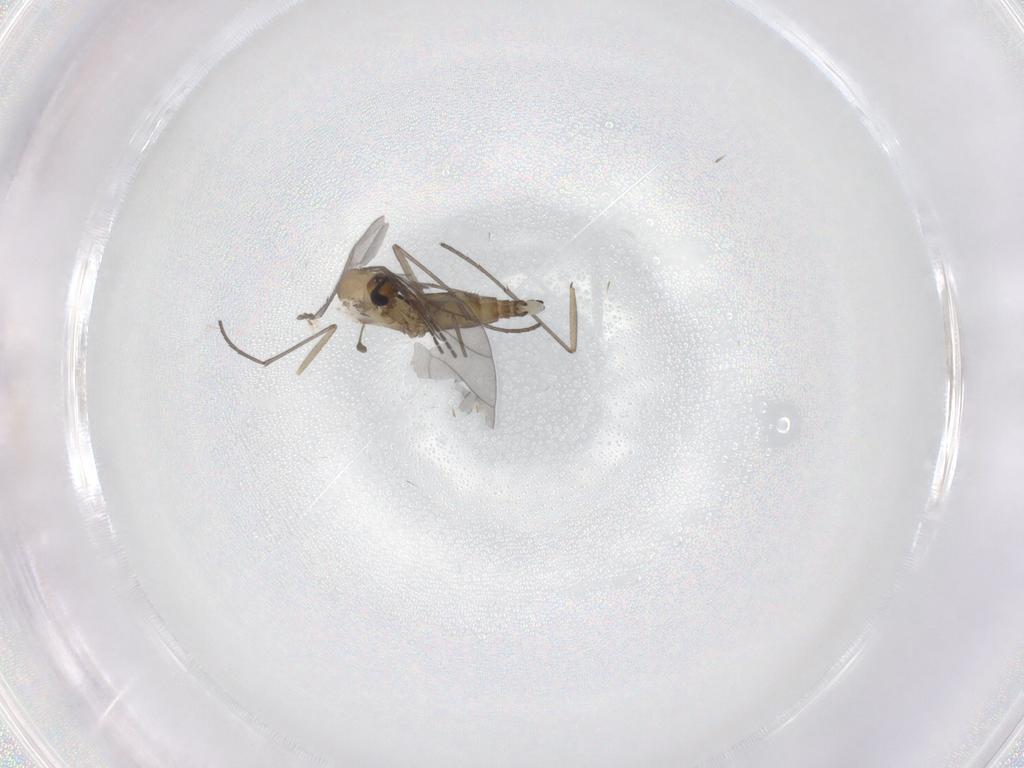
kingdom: Animalia
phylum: Arthropoda
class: Insecta
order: Diptera
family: Sciaridae
